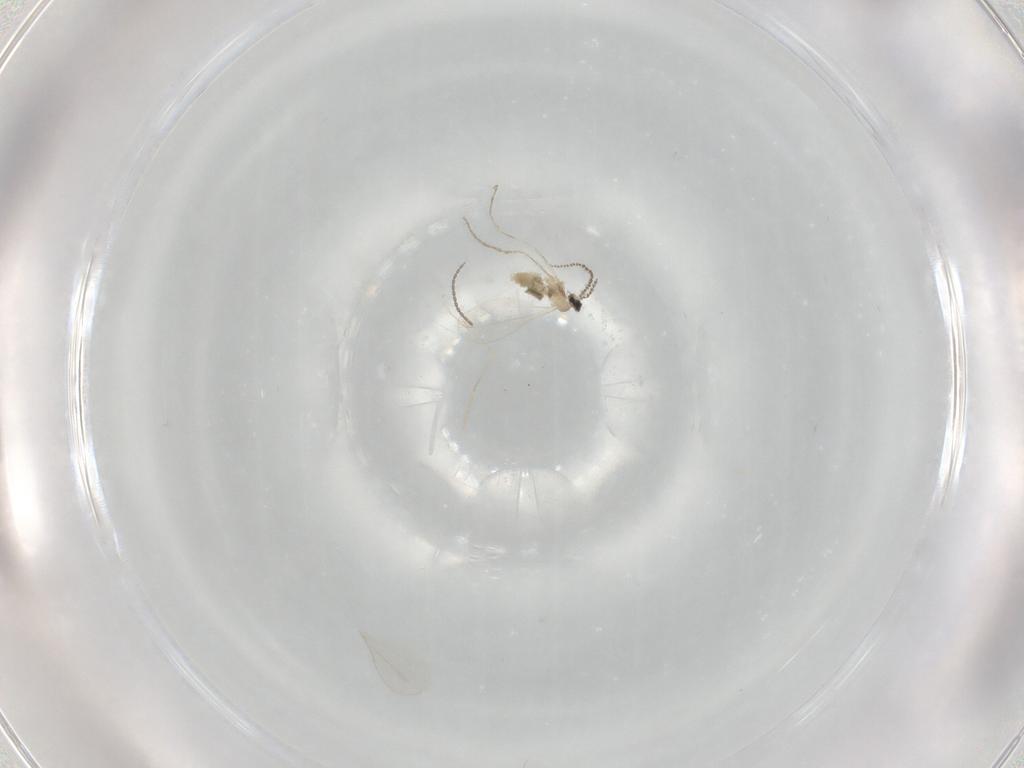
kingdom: Animalia
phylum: Arthropoda
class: Insecta
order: Diptera
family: Cecidomyiidae
